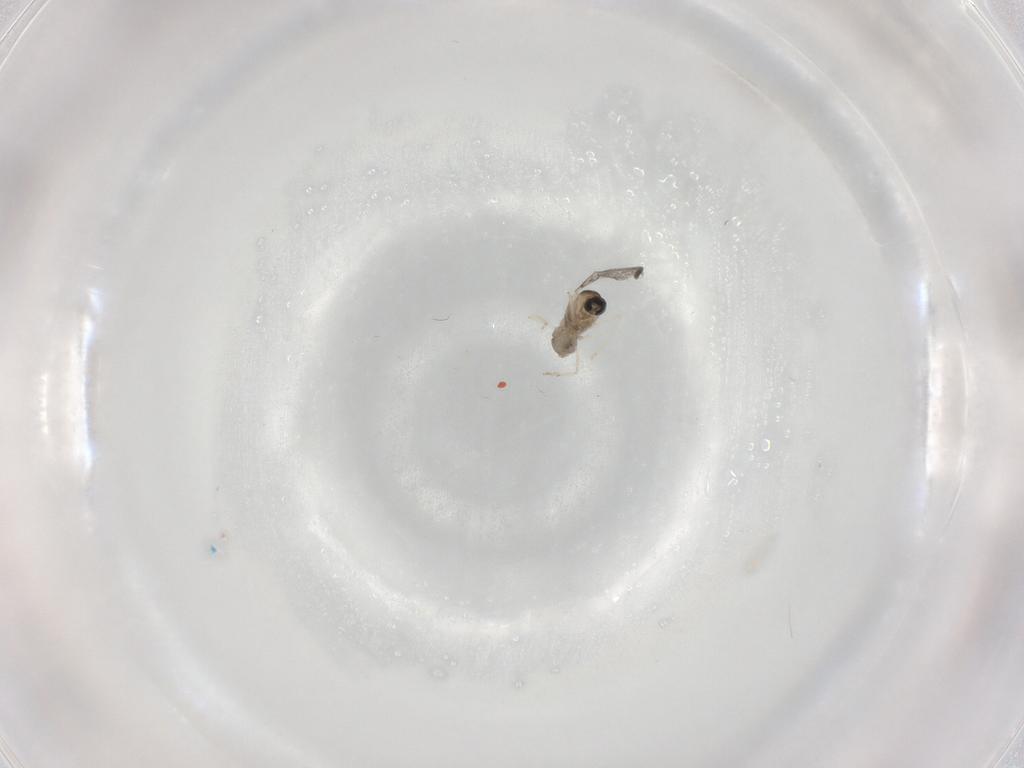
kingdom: Animalia
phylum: Arthropoda
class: Insecta
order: Diptera
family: Cecidomyiidae
